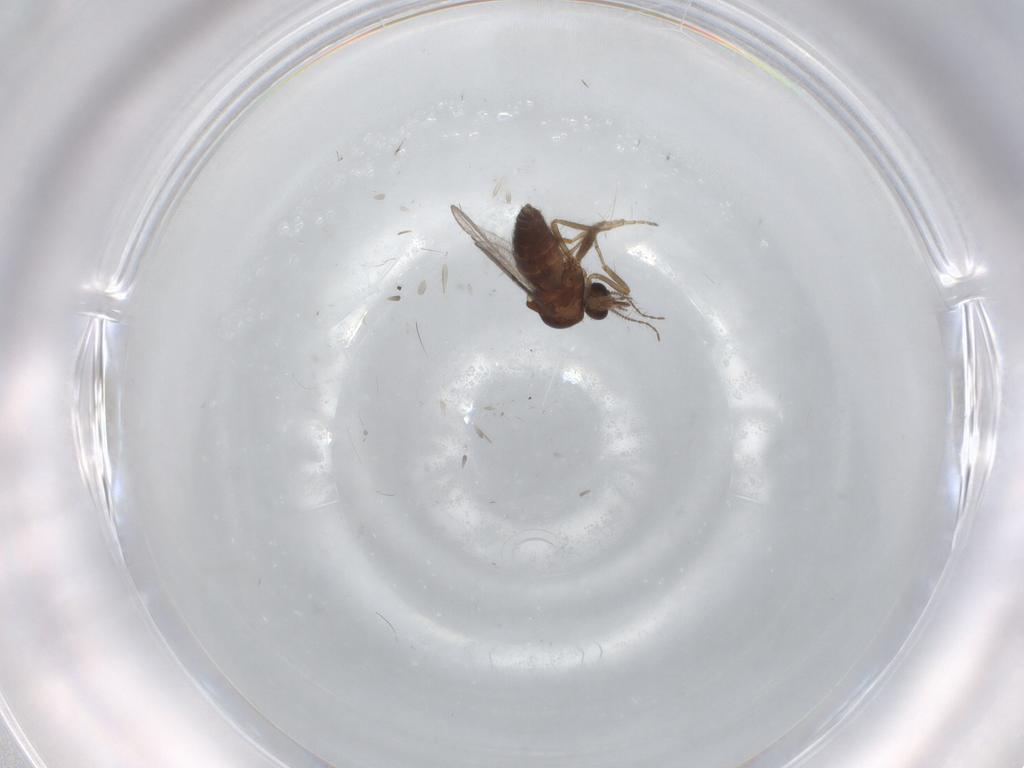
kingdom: Animalia
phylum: Arthropoda
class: Insecta
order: Diptera
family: Ceratopogonidae
